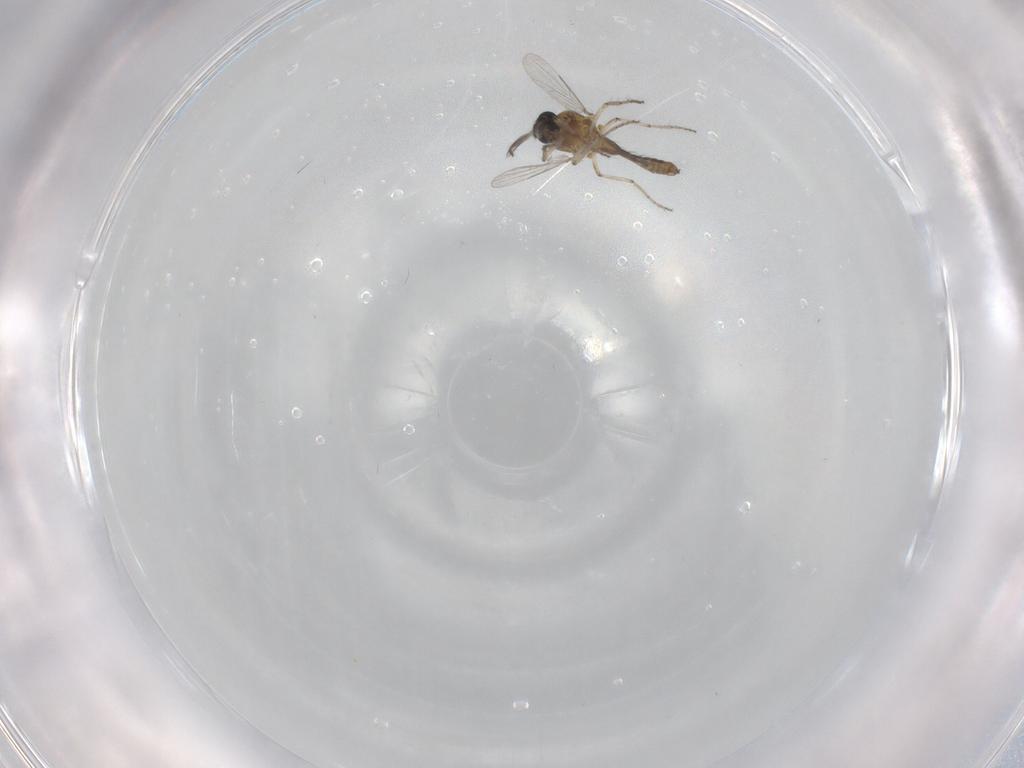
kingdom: Animalia
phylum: Arthropoda
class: Insecta
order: Diptera
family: Ceratopogonidae
